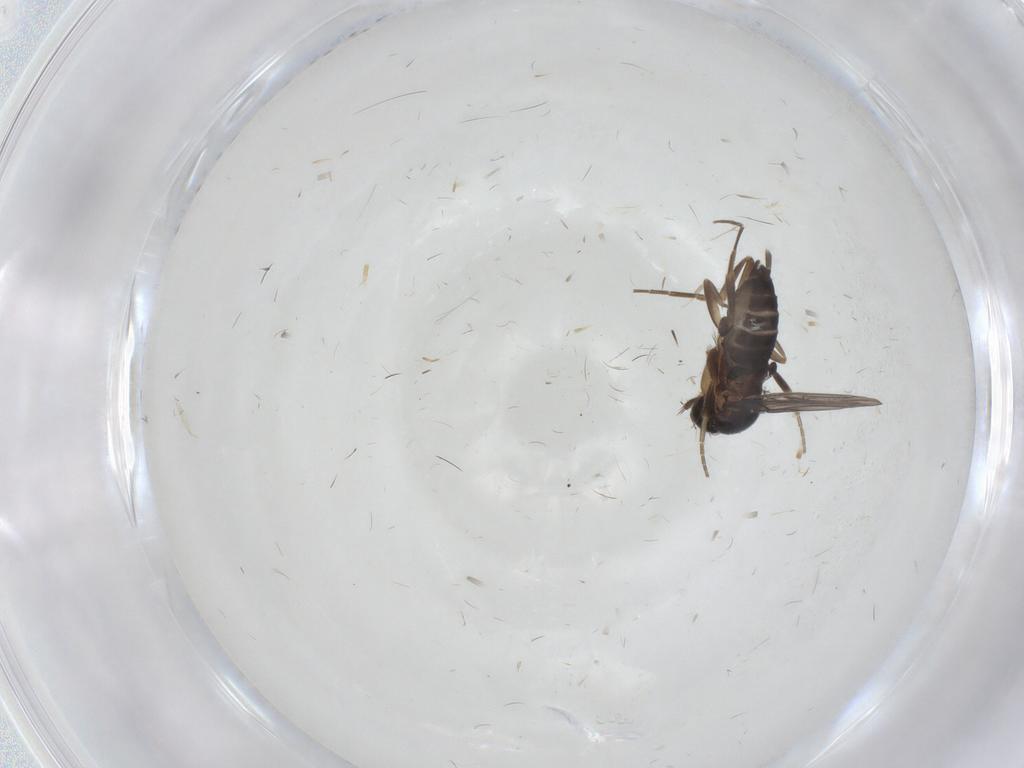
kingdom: Animalia
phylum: Arthropoda
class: Insecta
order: Diptera
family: Phoridae
